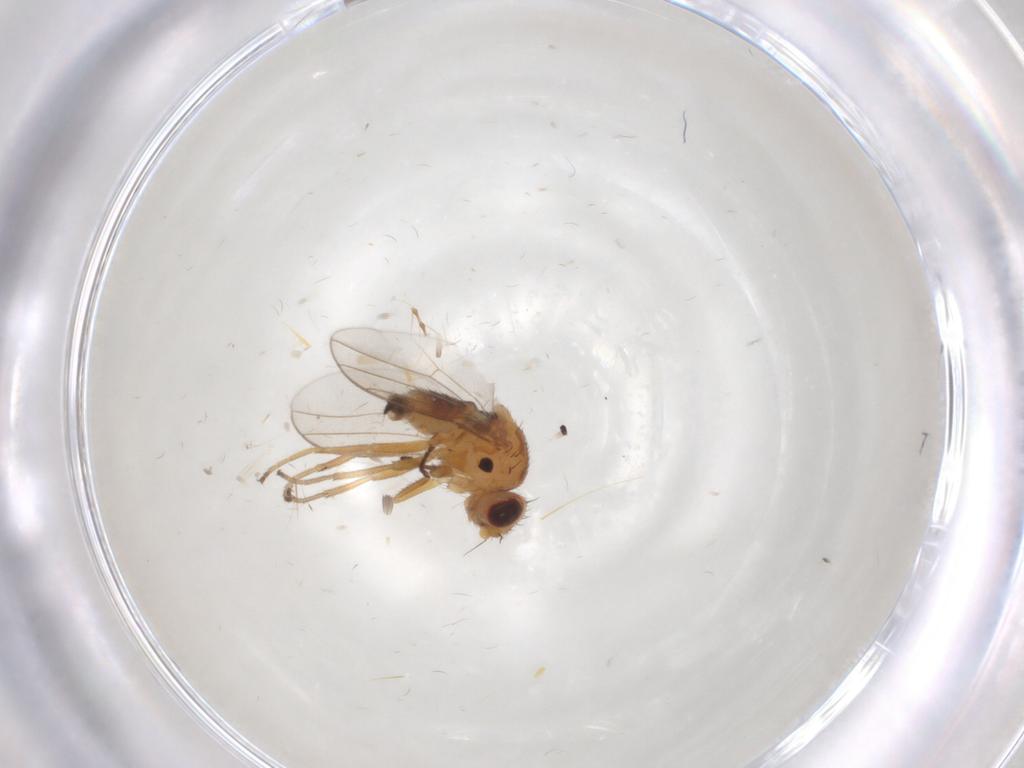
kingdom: Animalia
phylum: Arthropoda
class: Insecta
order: Diptera
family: Chloropidae
